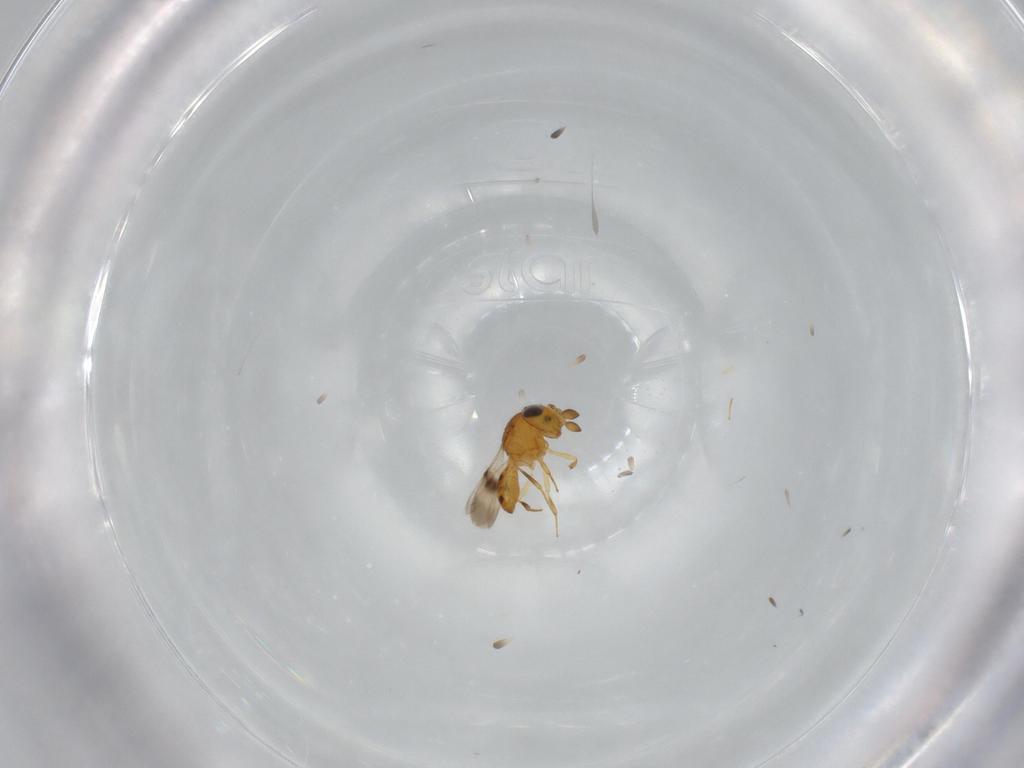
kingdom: Animalia
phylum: Arthropoda
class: Insecta
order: Hymenoptera
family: Scelionidae
